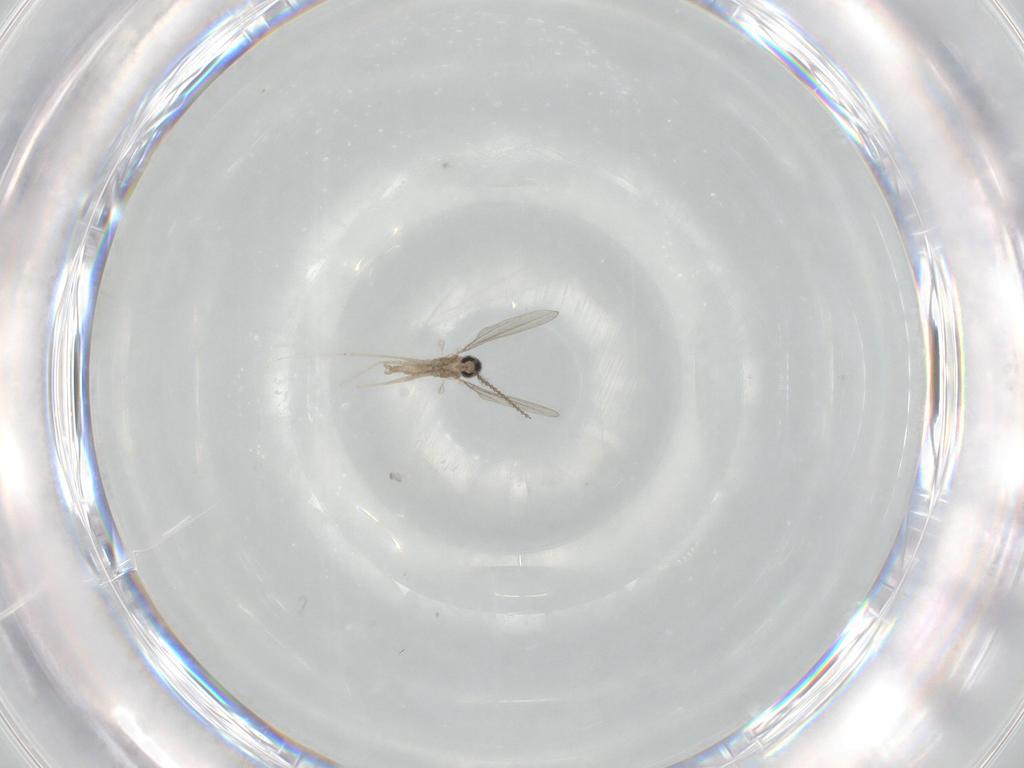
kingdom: Animalia
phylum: Arthropoda
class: Insecta
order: Diptera
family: Cecidomyiidae
